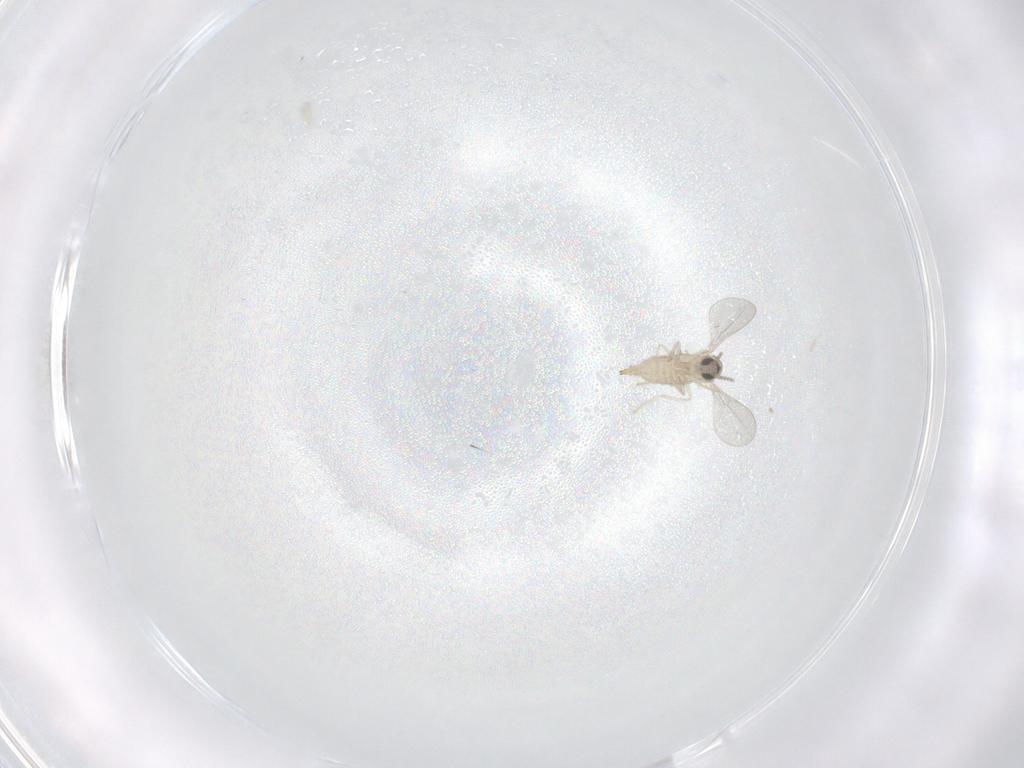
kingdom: Animalia
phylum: Arthropoda
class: Insecta
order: Diptera
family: Cecidomyiidae
